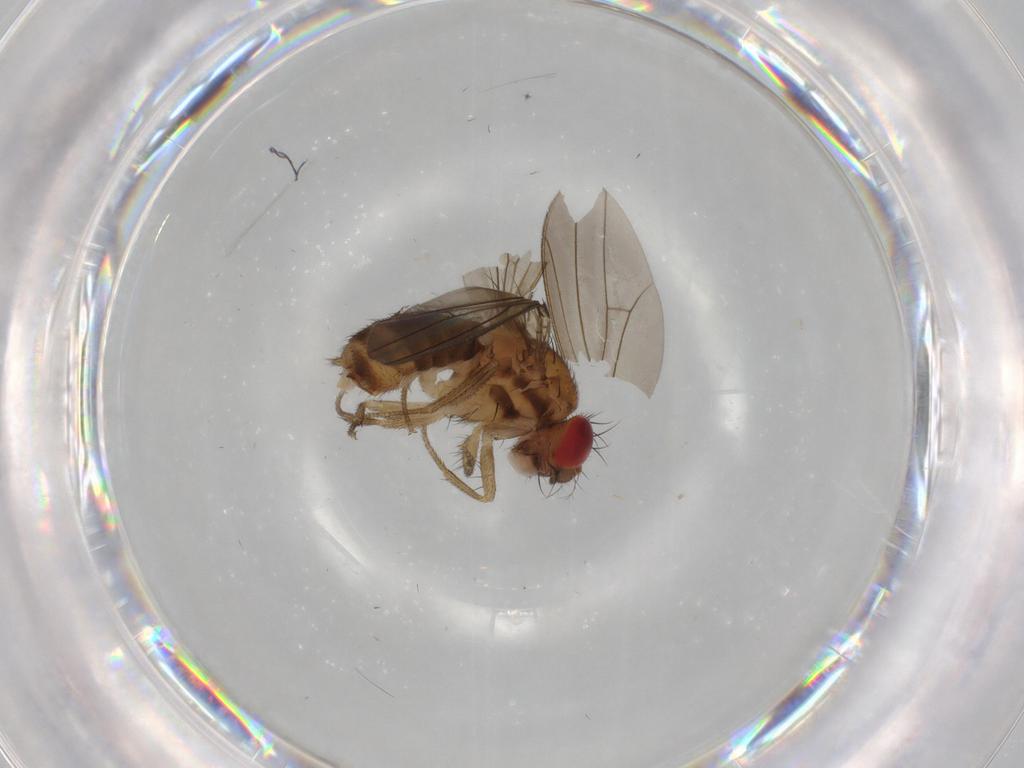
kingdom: Animalia
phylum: Arthropoda
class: Insecta
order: Diptera
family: Drosophilidae
